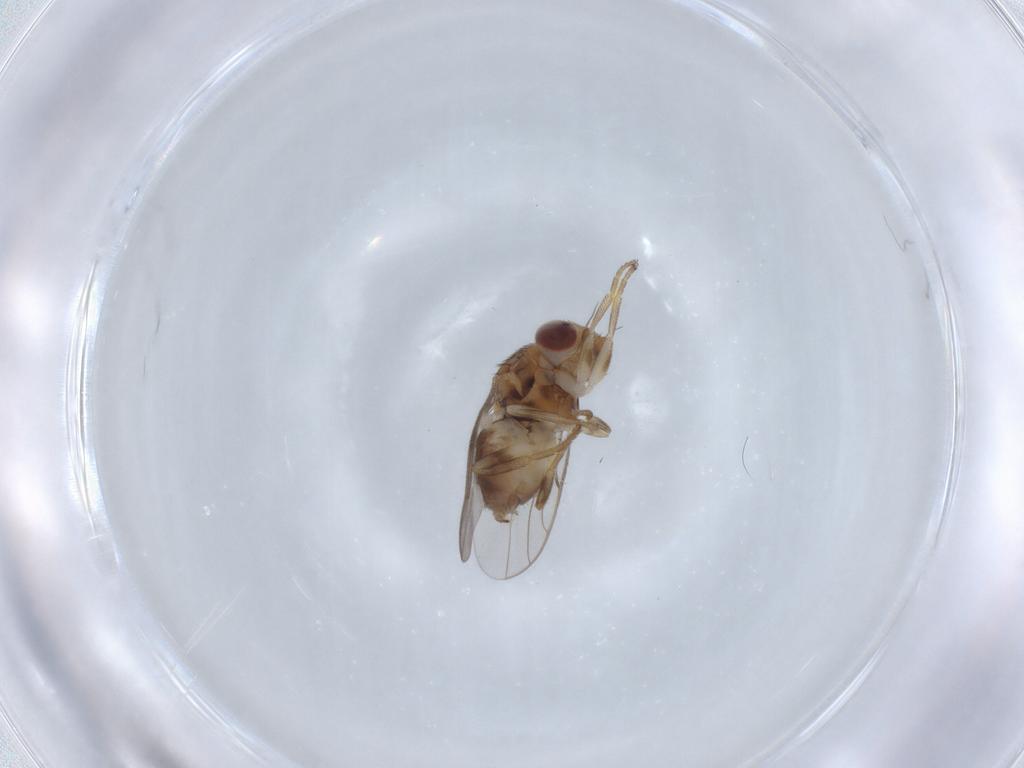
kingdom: Animalia
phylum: Arthropoda
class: Insecta
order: Diptera
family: Chloropidae
